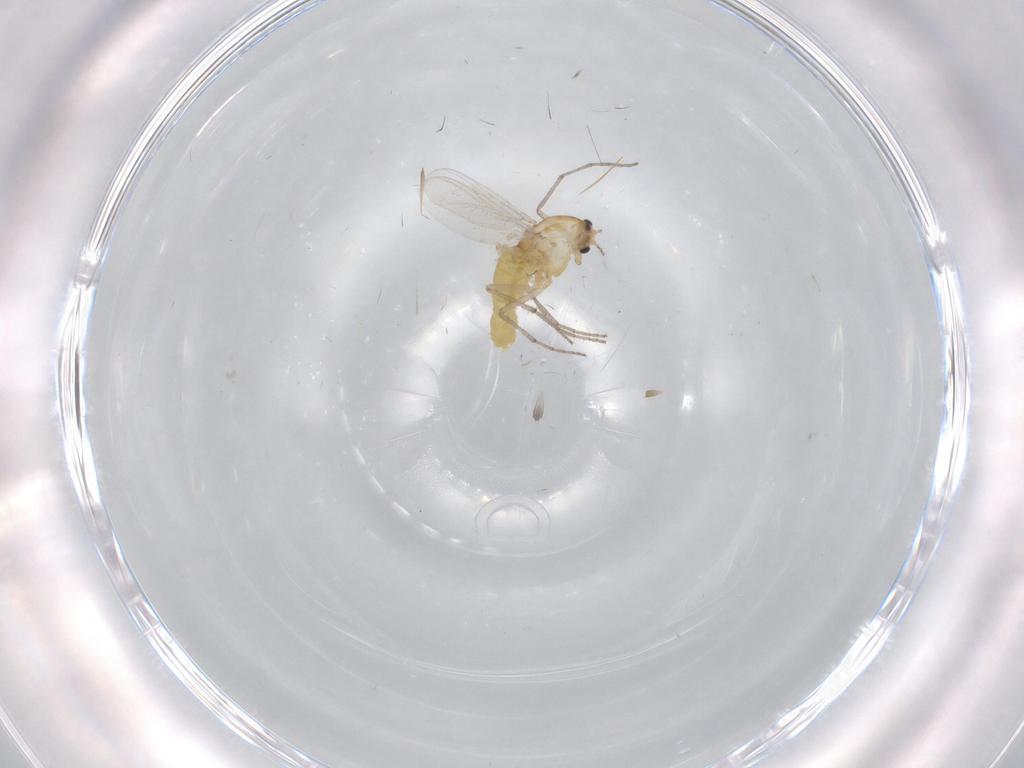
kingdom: Animalia
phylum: Arthropoda
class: Insecta
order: Diptera
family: Chironomidae
